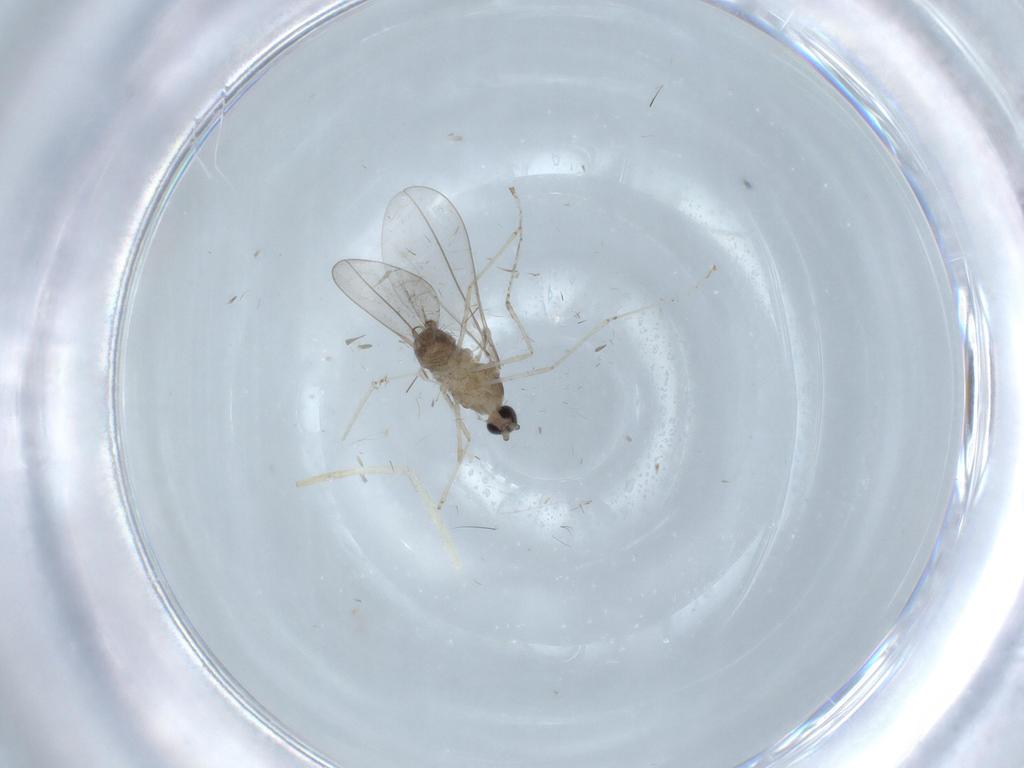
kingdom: Animalia
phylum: Arthropoda
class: Insecta
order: Diptera
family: Cecidomyiidae
